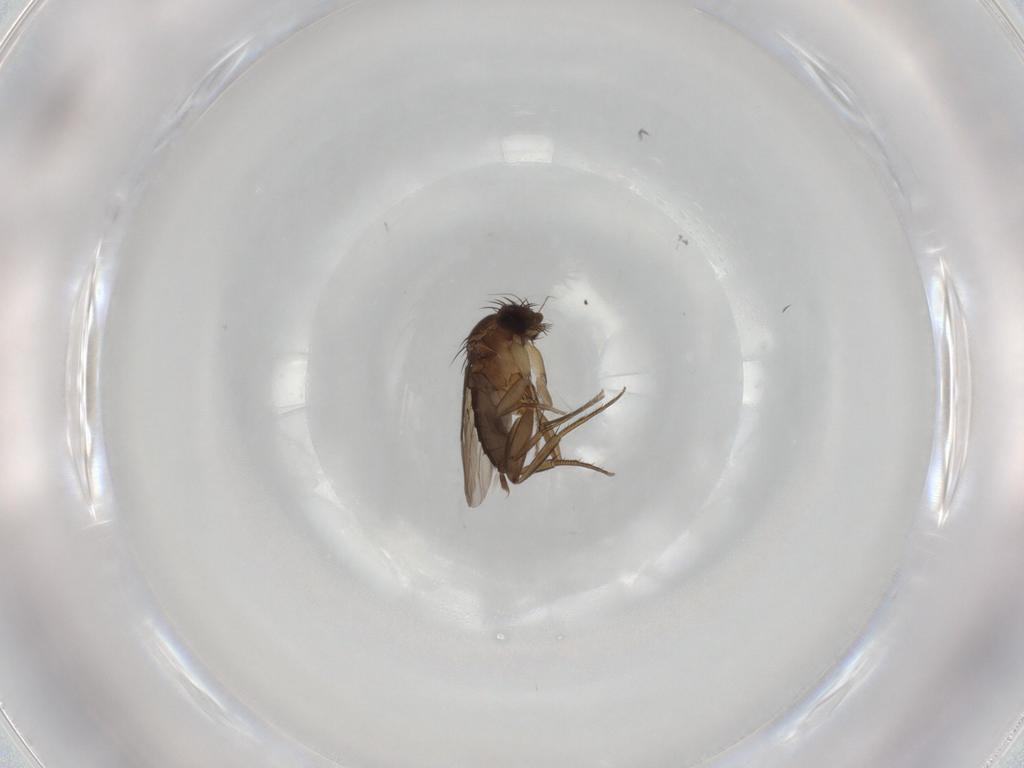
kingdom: Animalia
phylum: Arthropoda
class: Insecta
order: Diptera
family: Phoridae
